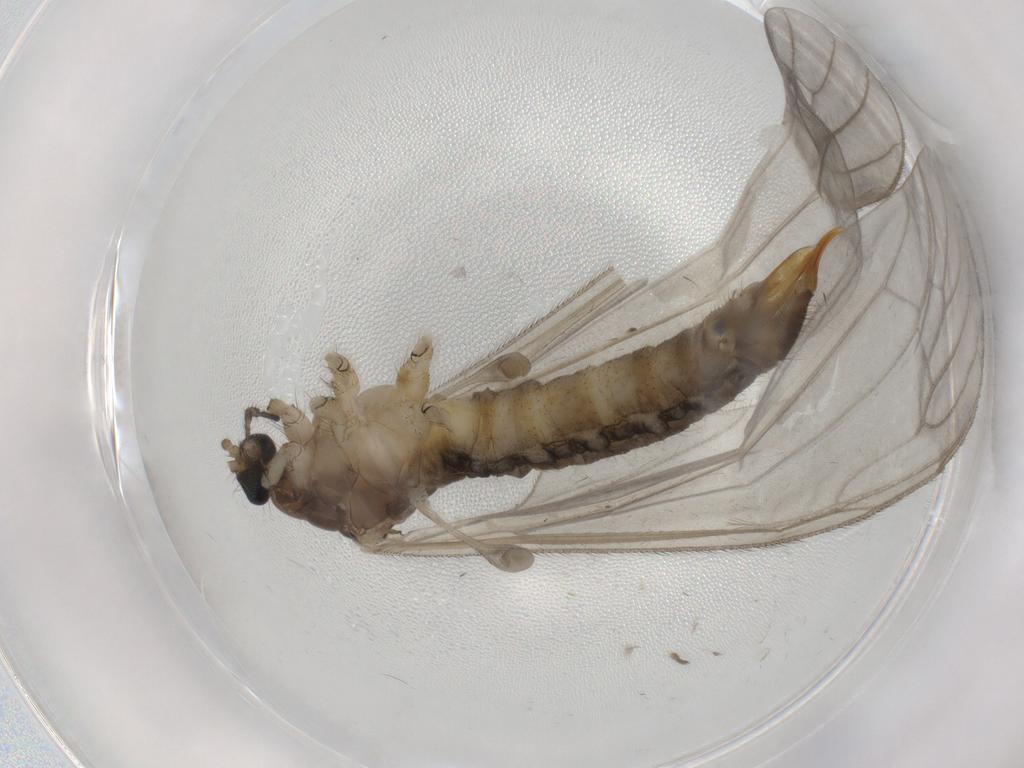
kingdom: Animalia
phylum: Arthropoda
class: Insecta
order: Diptera
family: Limoniidae
